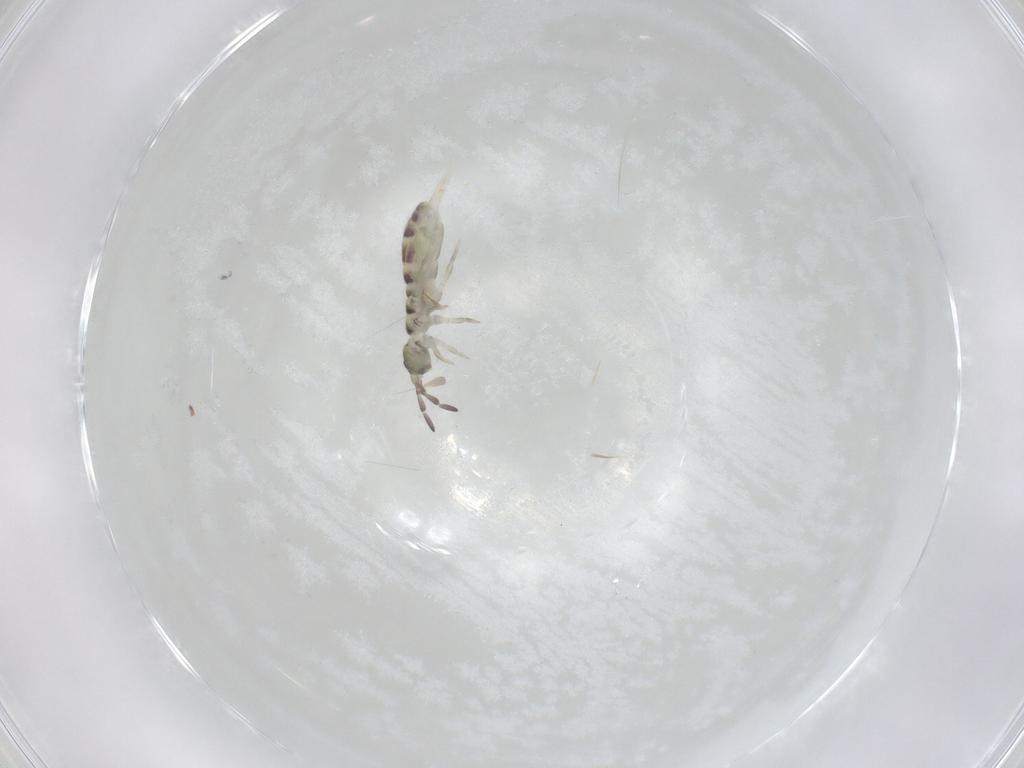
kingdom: Animalia
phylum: Arthropoda
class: Collembola
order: Entomobryomorpha
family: Isotomidae
